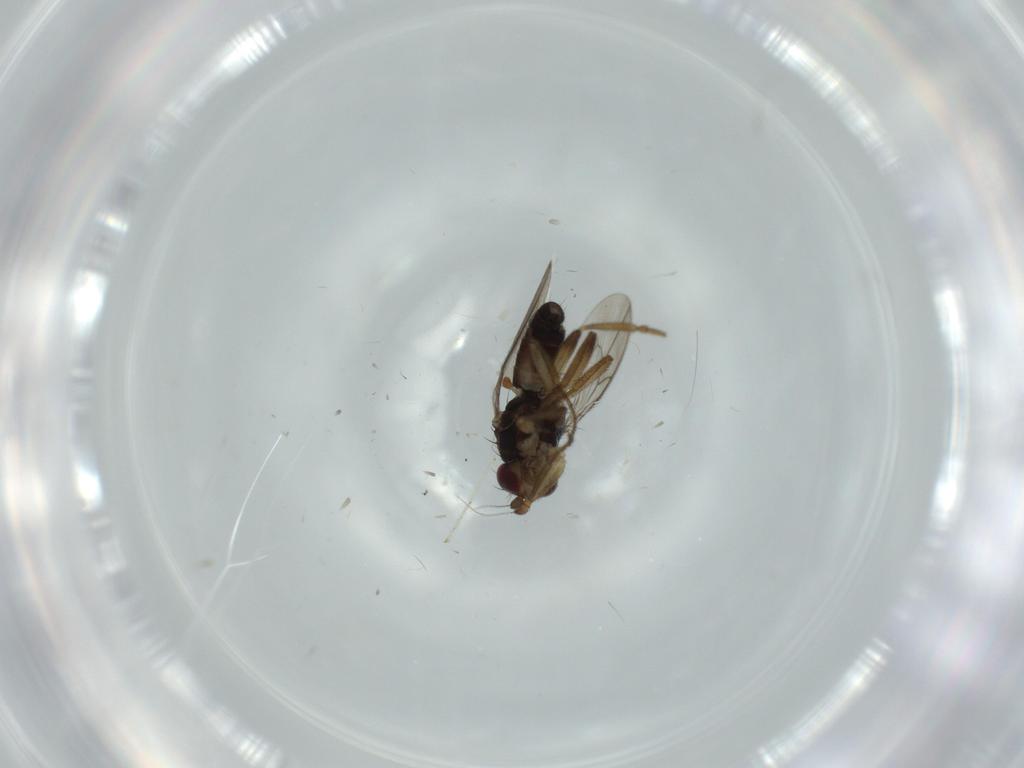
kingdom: Animalia
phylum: Arthropoda
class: Insecta
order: Diptera
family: Sphaeroceridae
